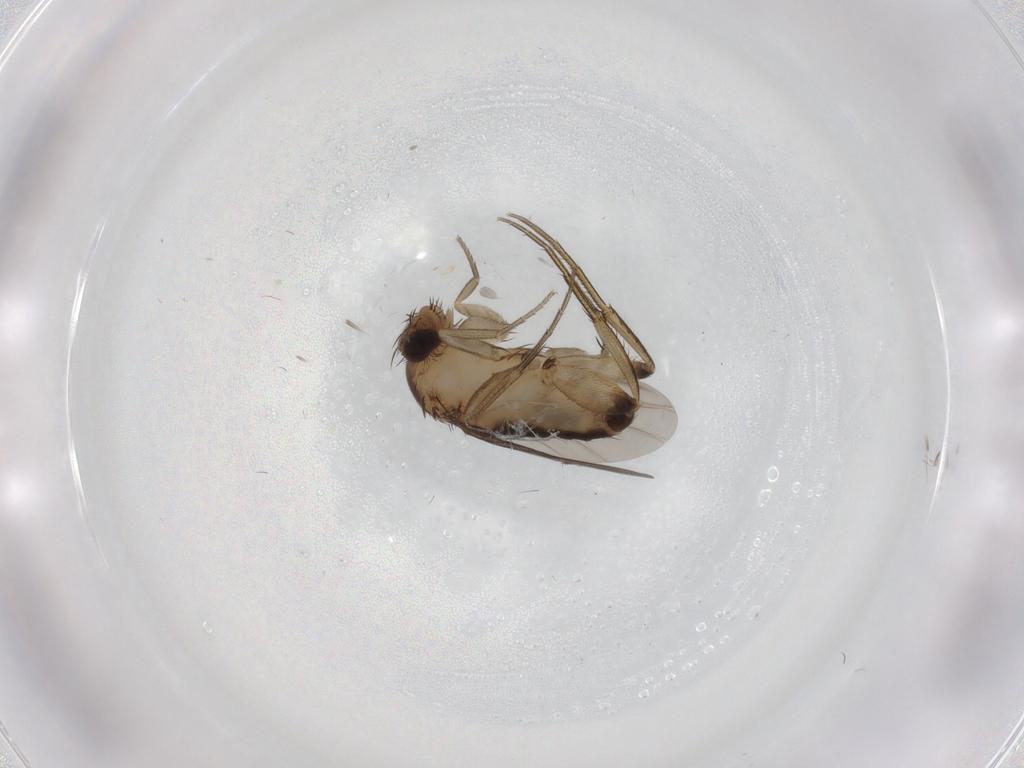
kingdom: Animalia
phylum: Arthropoda
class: Insecta
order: Diptera
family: Phoridae
